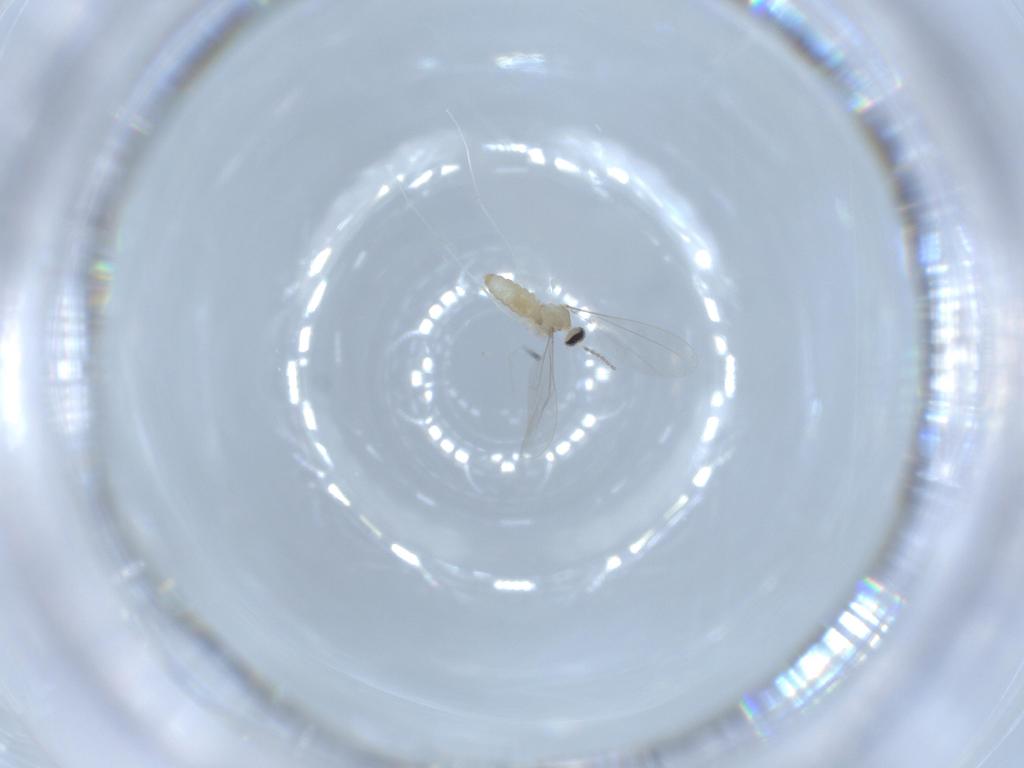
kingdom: Animalia
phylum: Arthropoda
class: Insecta
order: Diptera
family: Cecidomyiidae
